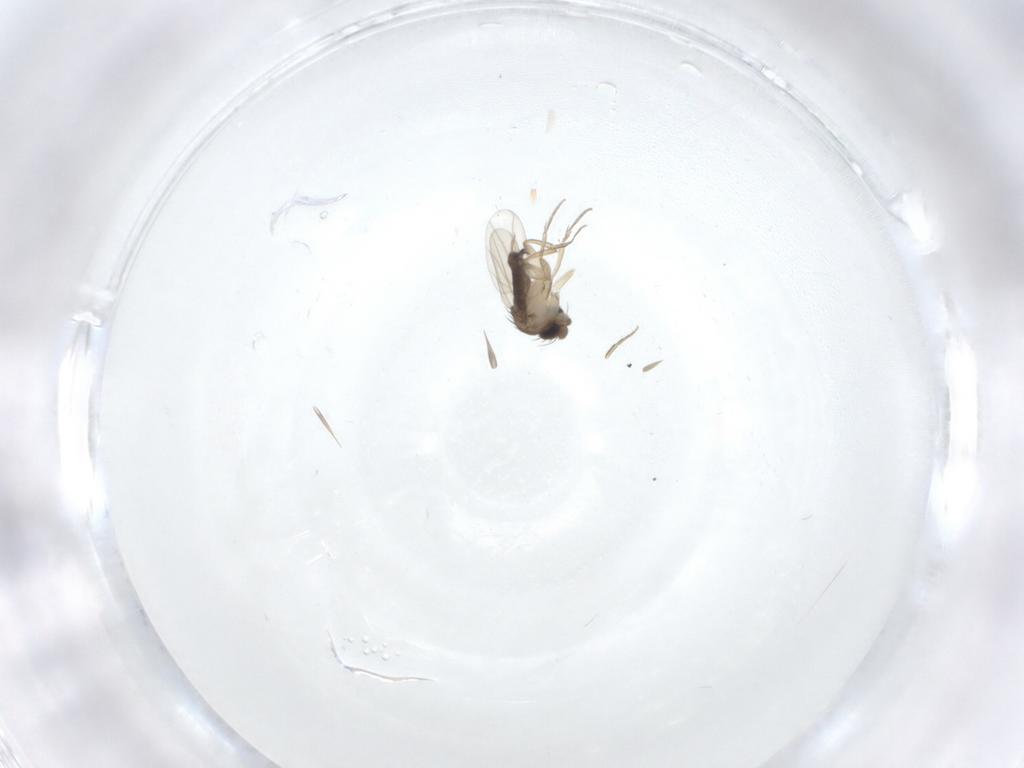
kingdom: Animalia
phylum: Arthropoda
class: Insecta
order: Diptera
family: Phoridae
